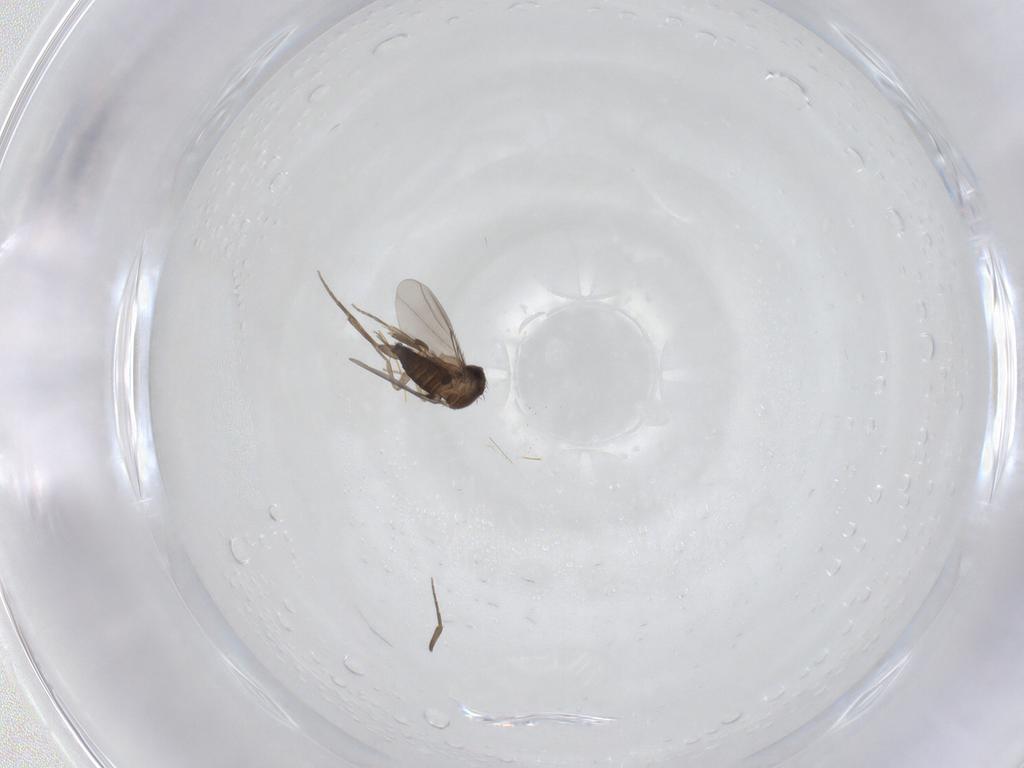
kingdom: Animalia
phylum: Arthropoda
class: Insecta
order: Diptera
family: Phoridae
